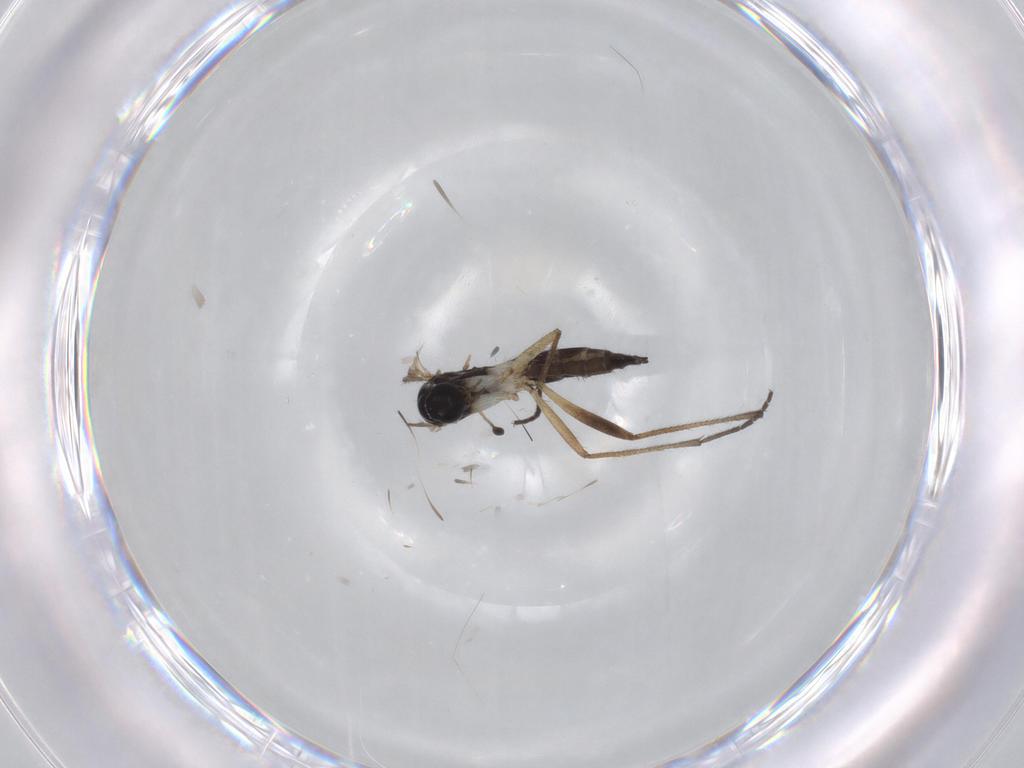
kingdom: Animalia
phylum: Arthropoda
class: Insecta
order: Diptera
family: Sciaridae
